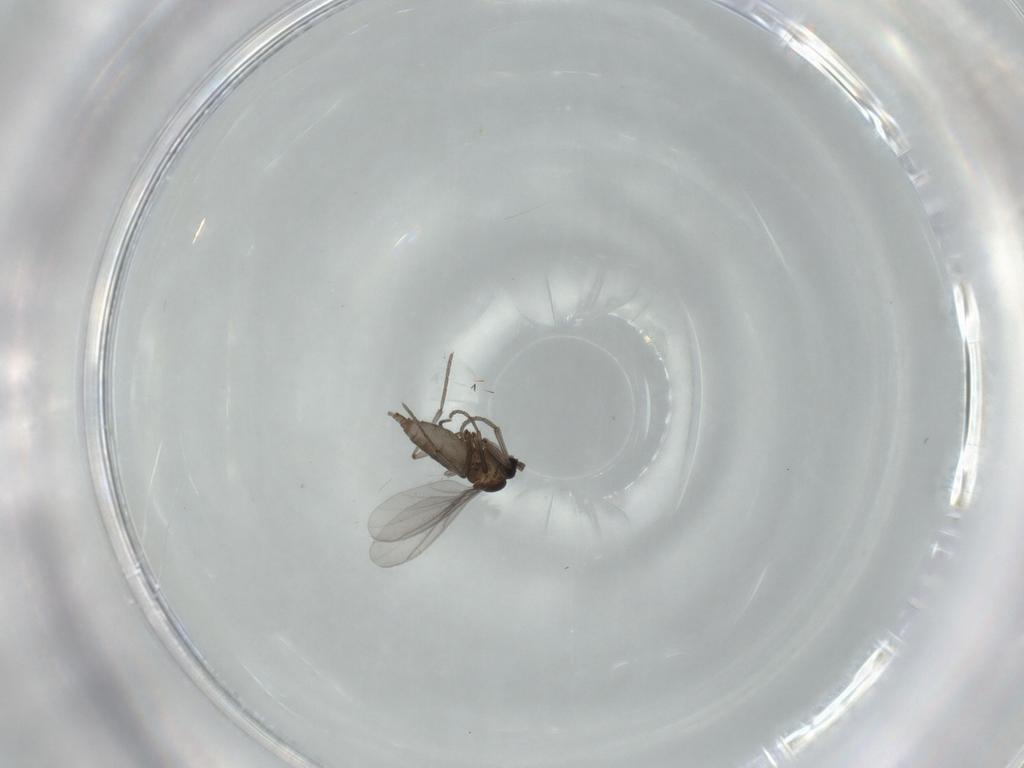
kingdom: Animalia
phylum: Arthropoda
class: Insecta
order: Diptera
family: Sciaridae
